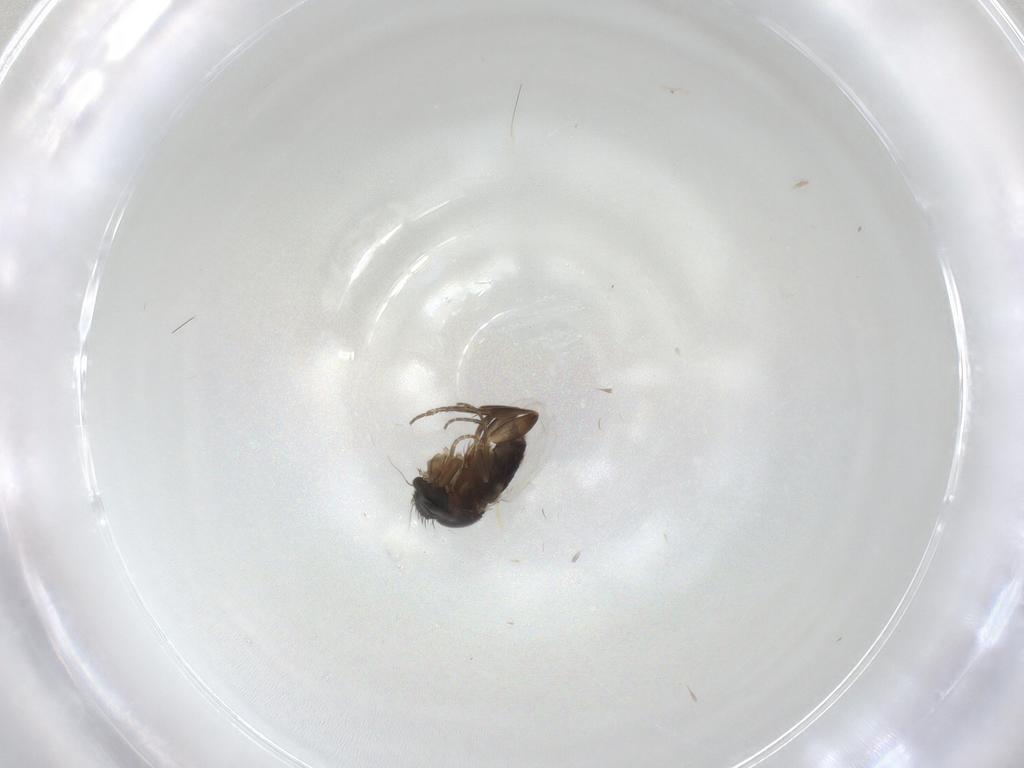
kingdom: Animalia
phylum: Arthropoda
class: Insecta
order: Diptera
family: Phoridae
